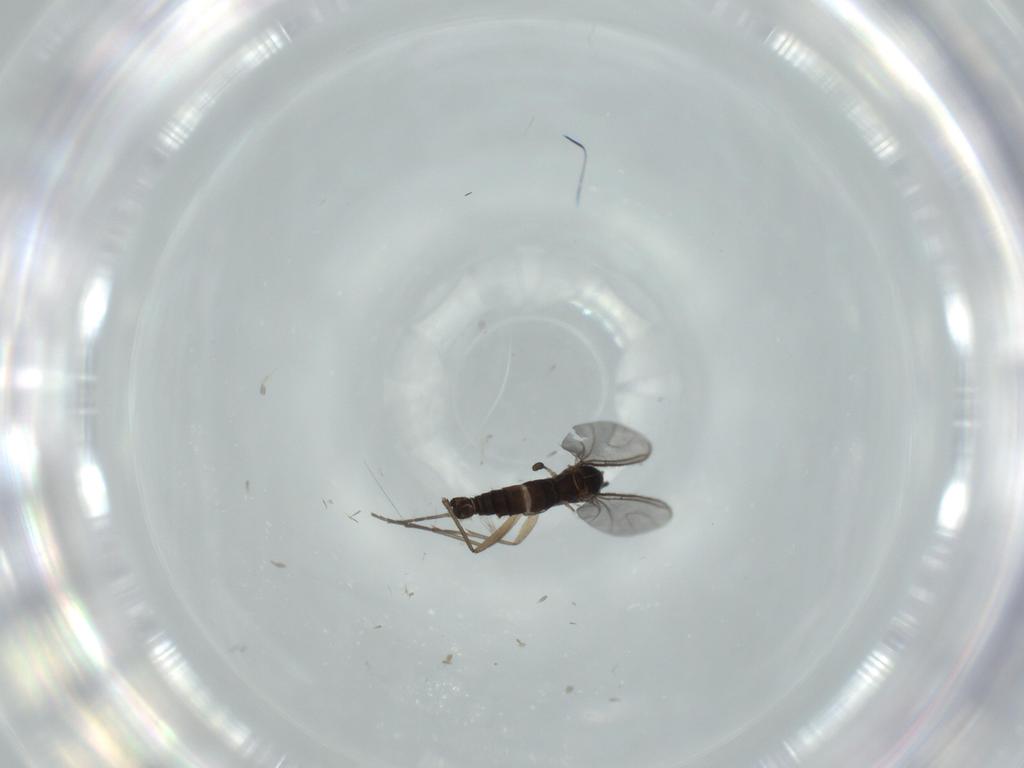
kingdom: Animalia
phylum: Arthropoda
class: Insecta
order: Diptera
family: Sciaridae
